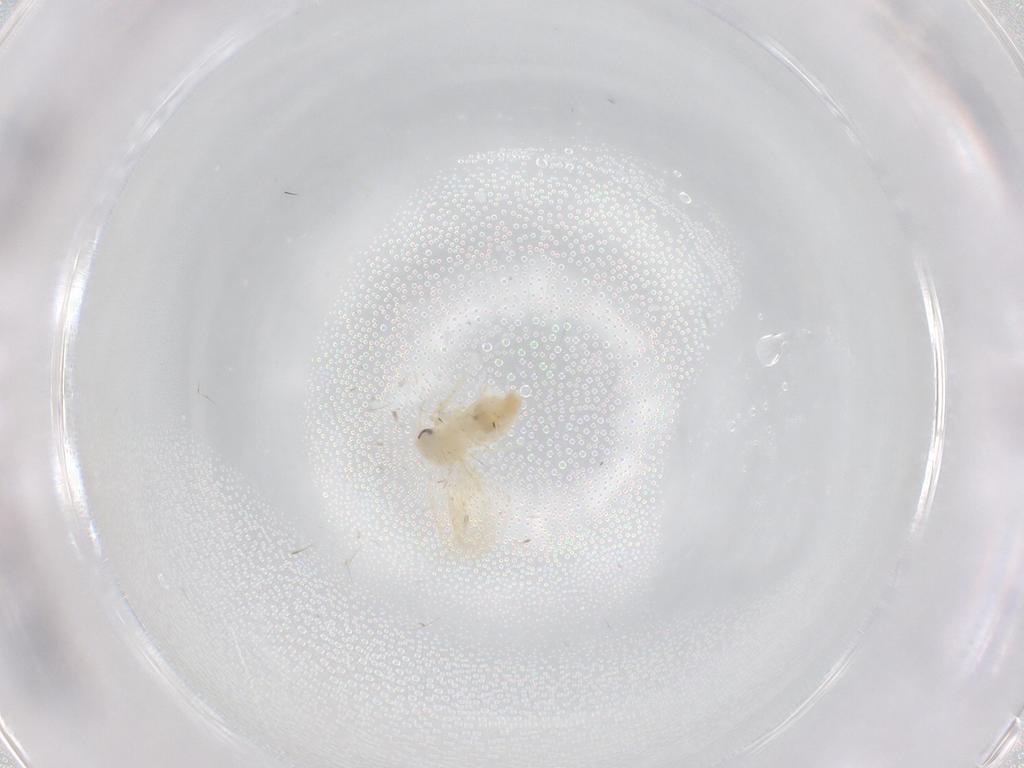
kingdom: Animalia
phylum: Arthropoda
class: Insecta
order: Hemiptera
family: Aleyrodidae
